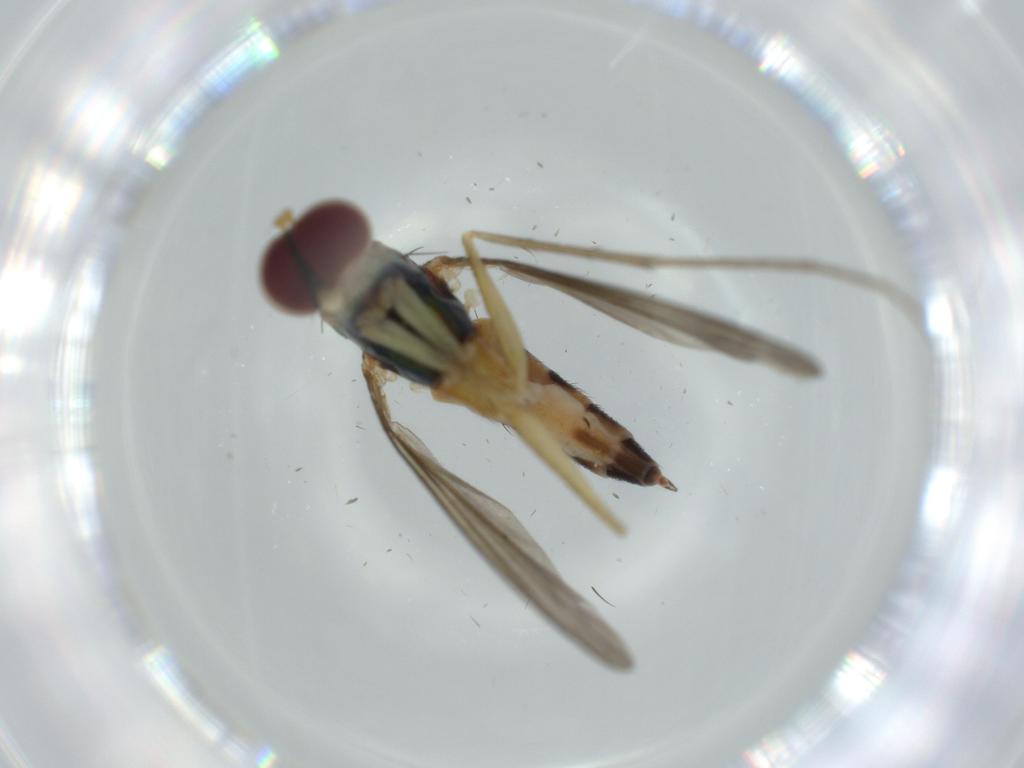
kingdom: Animalia
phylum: Arthropoda
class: Insecta
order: Diptera
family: Dolichopodidae
